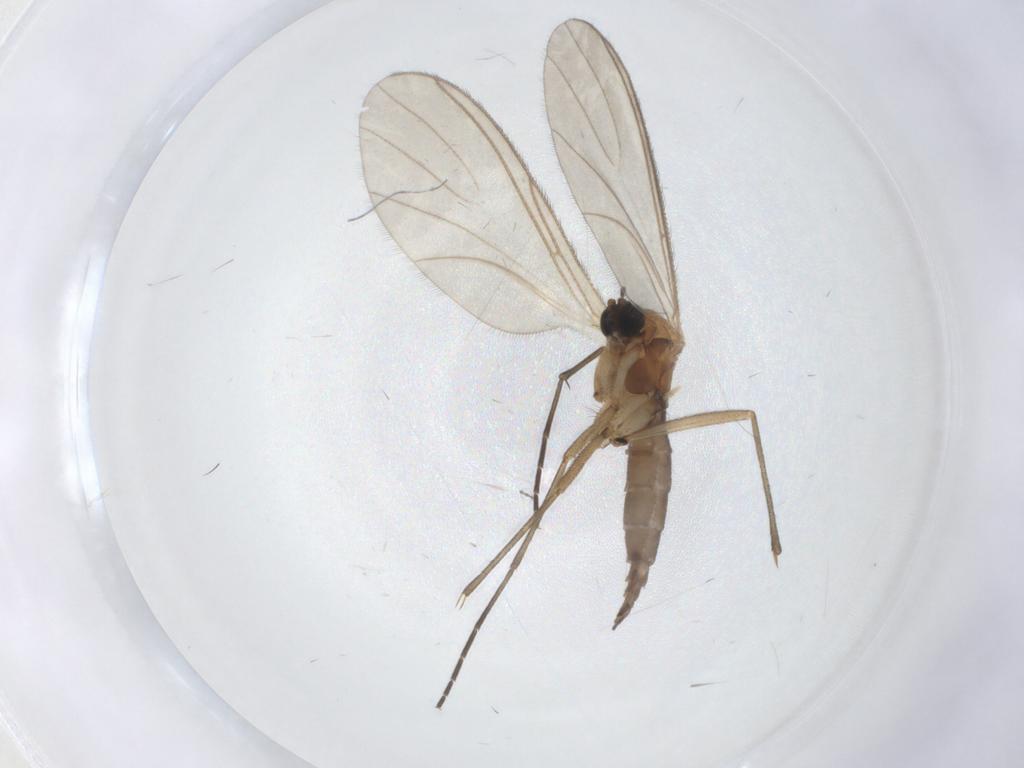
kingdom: Animalia
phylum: Arthropoda
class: Insecta
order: Diptera
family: Sciaridae
